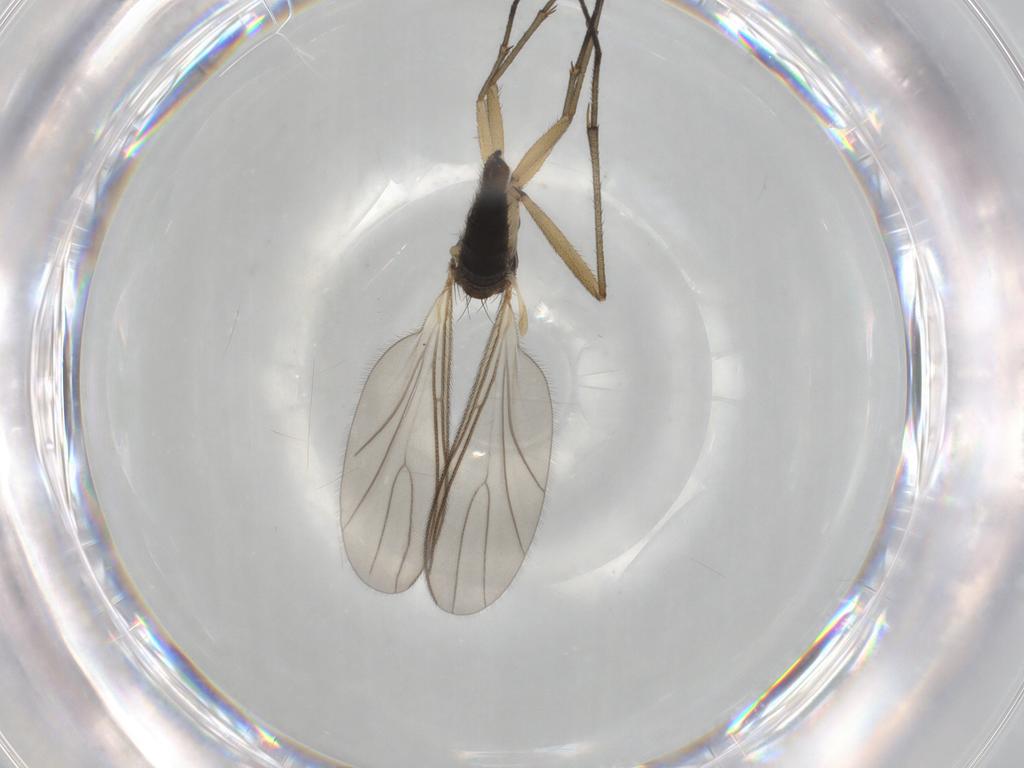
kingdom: Animalia
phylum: Arthropoda
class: Insecta
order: Diptera
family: Sciaridae
